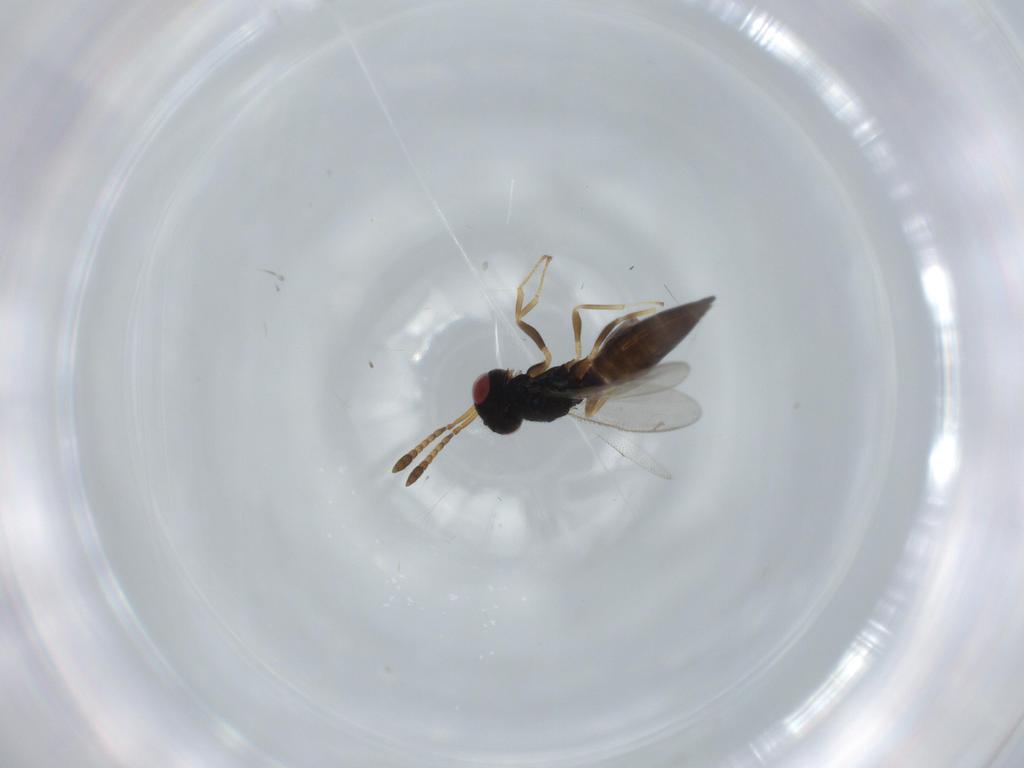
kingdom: Animalia
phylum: Arthropoda
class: Insecta
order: Hymenoptera
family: Pteromalidae
